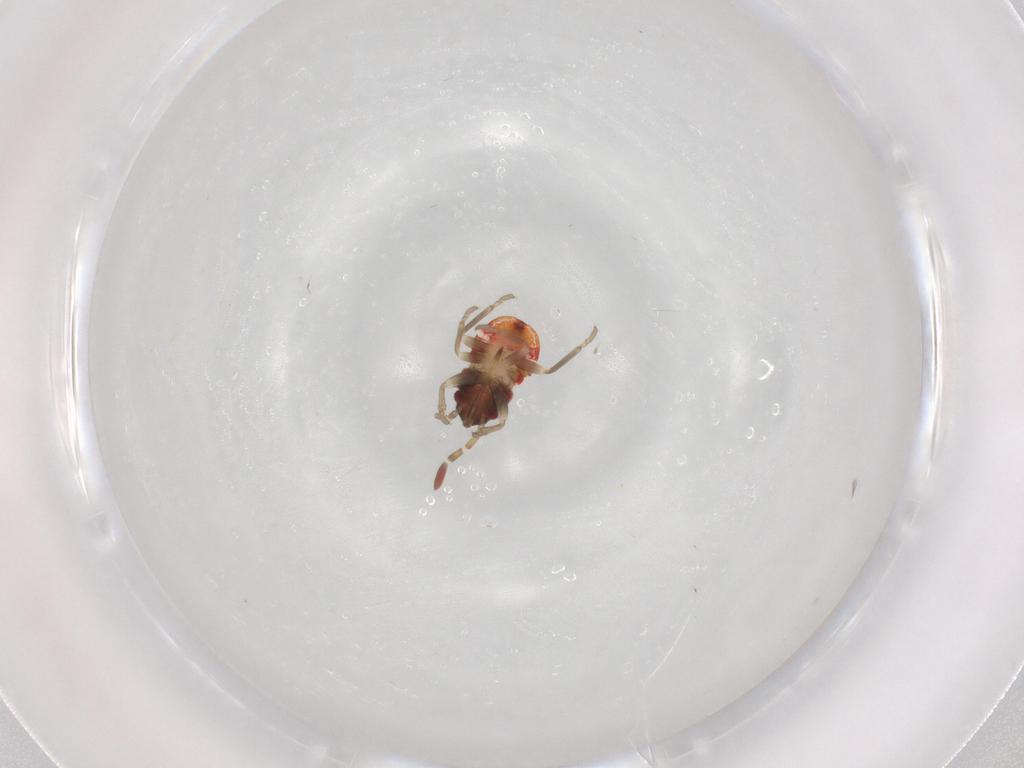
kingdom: Animalia
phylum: Arthropoda
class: Insecta
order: Hemiptera
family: Rhyparochromidae
